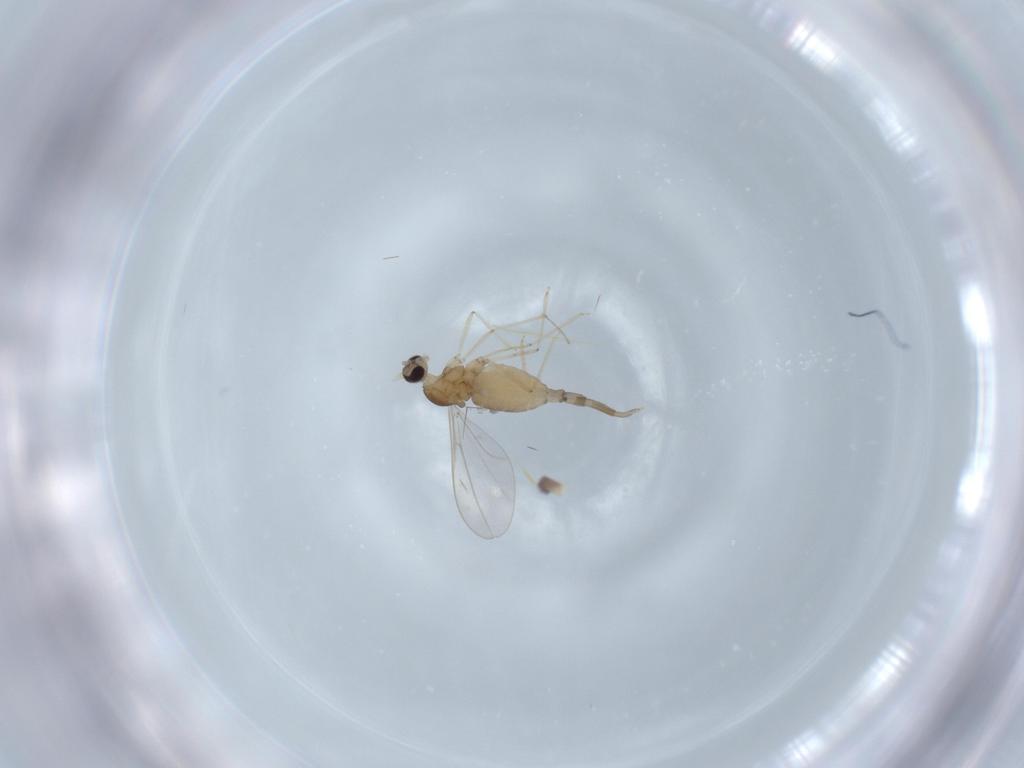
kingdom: Animalia
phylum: Arthropoda
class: Insecta
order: Diptera
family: Cecidomyiidae
